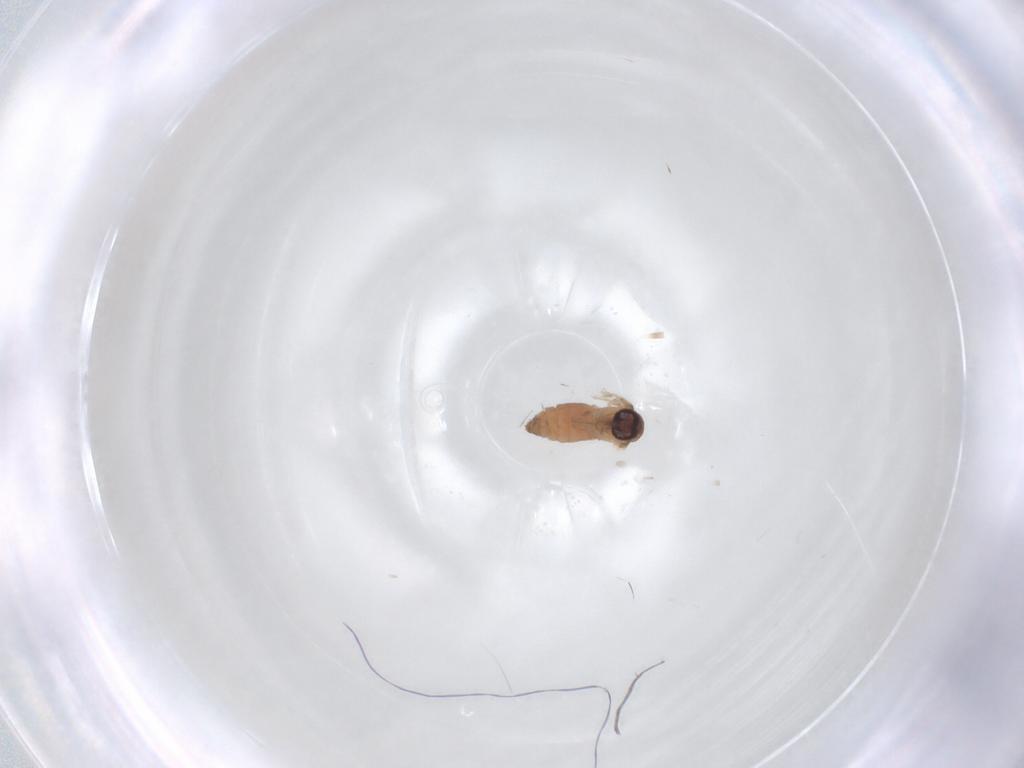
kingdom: Animalia
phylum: Arthropoda
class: Insecta
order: Diptera
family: Psychodidae
